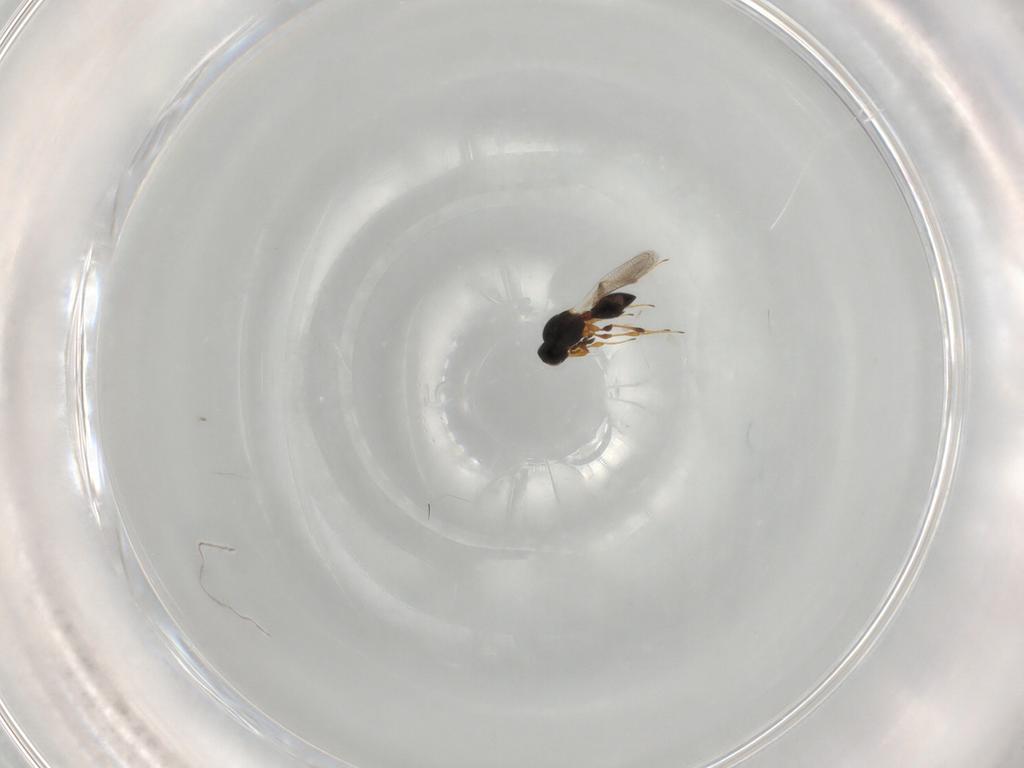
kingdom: Animalia
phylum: Arthropoda
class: Insecta
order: Hymenoptera
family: Platygastridae
